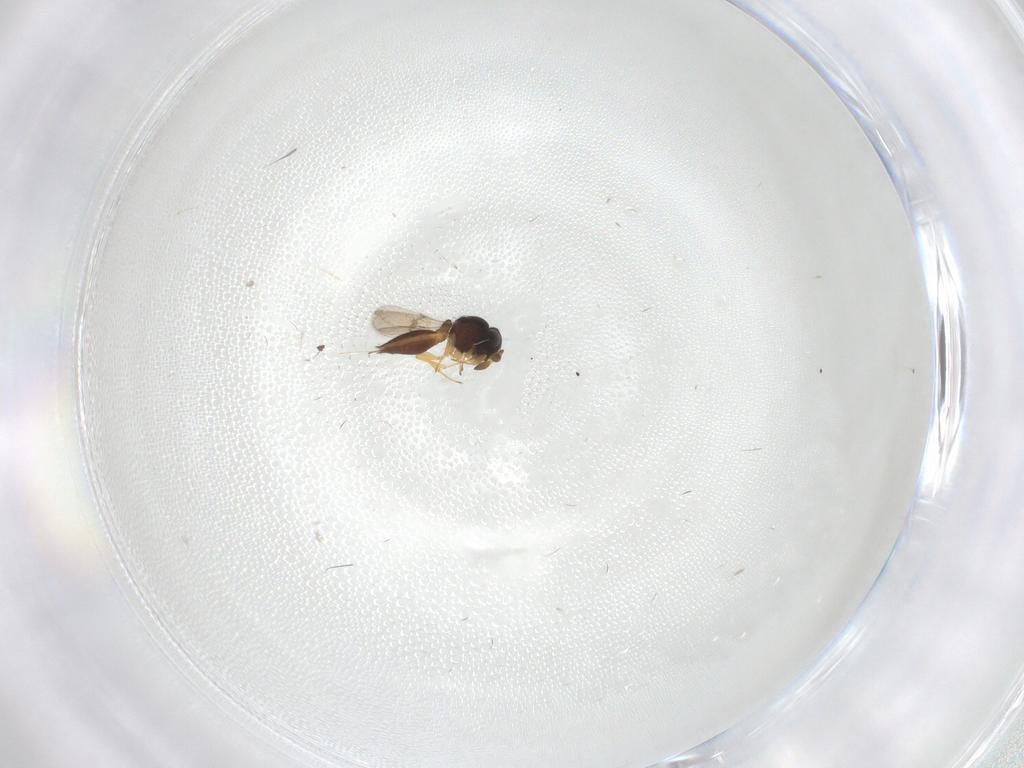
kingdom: Animalia
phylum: Arthropoda
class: Insecta
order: Hymenoptera
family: Scelionidae
